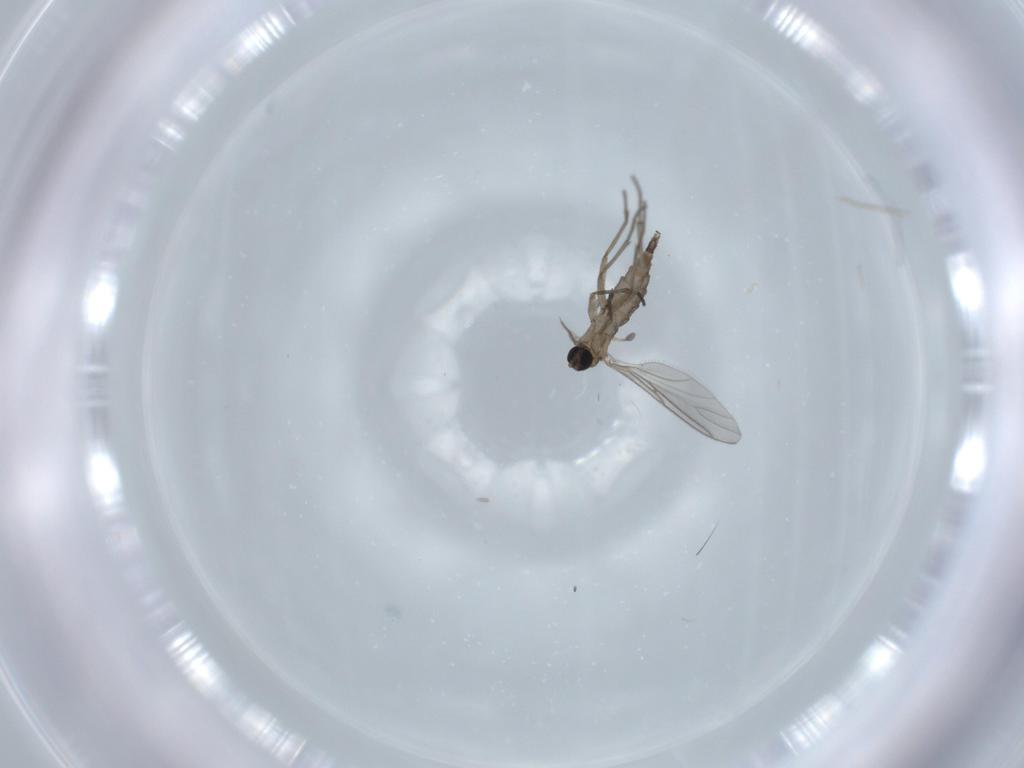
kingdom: Animalia
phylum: Arthropoda
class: Insecta
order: Diptera
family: Sciaridae
